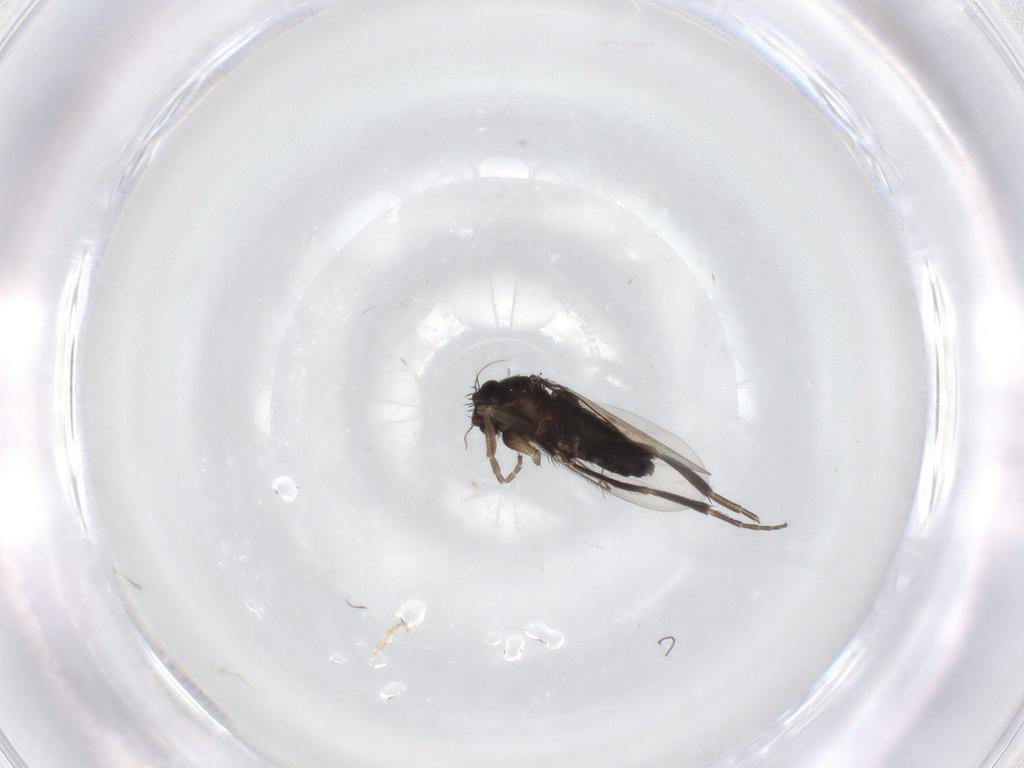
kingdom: Animalia
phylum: Arthropoda
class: Insecta
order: Diptera
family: Phoridae
